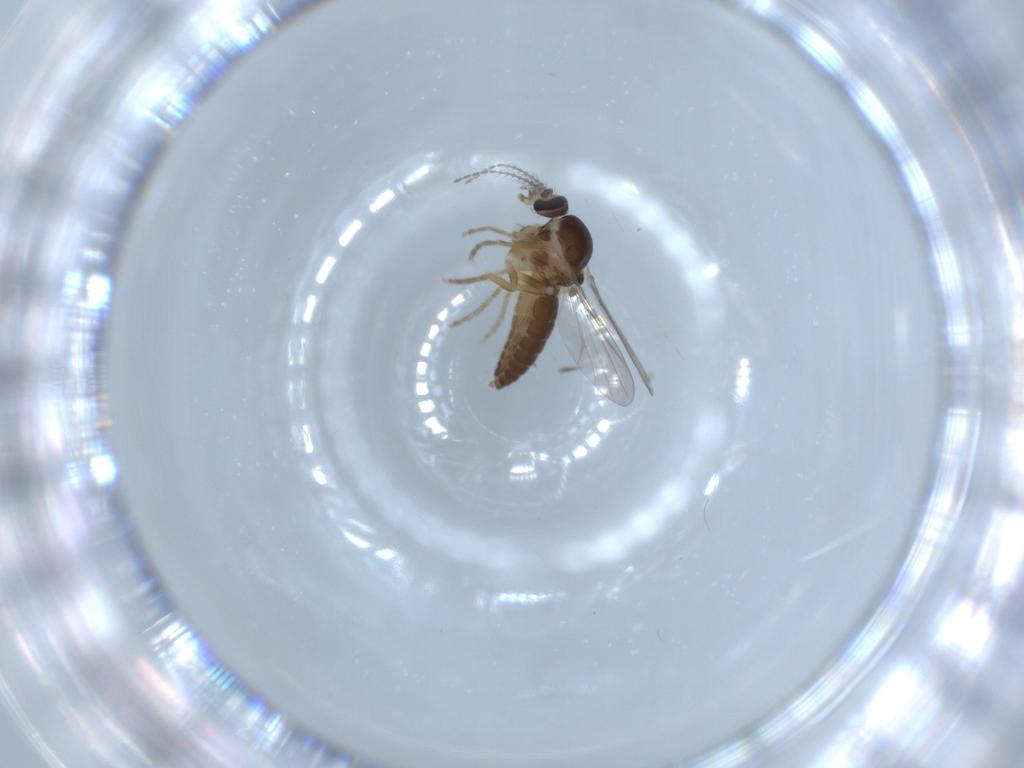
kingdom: Animalia
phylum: Arthropoda
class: Insecta
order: Diptera
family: Ceratopogonidae
